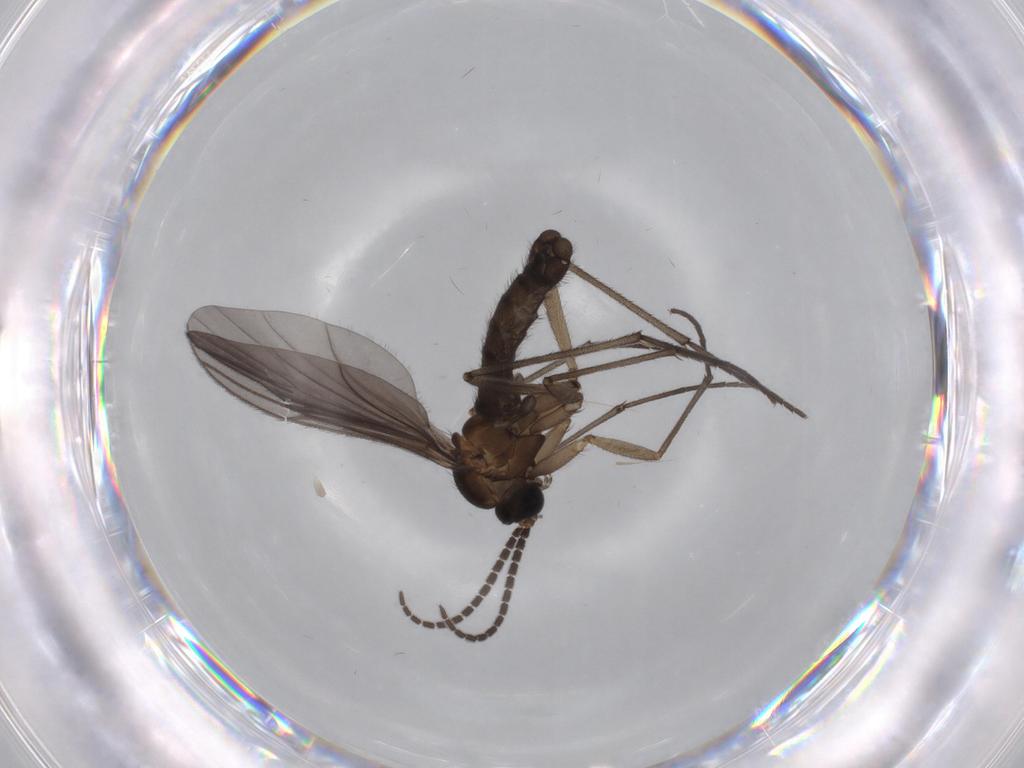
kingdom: Animalia
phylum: Arthropoda
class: Insecta
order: Diptera
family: Sciaridae
